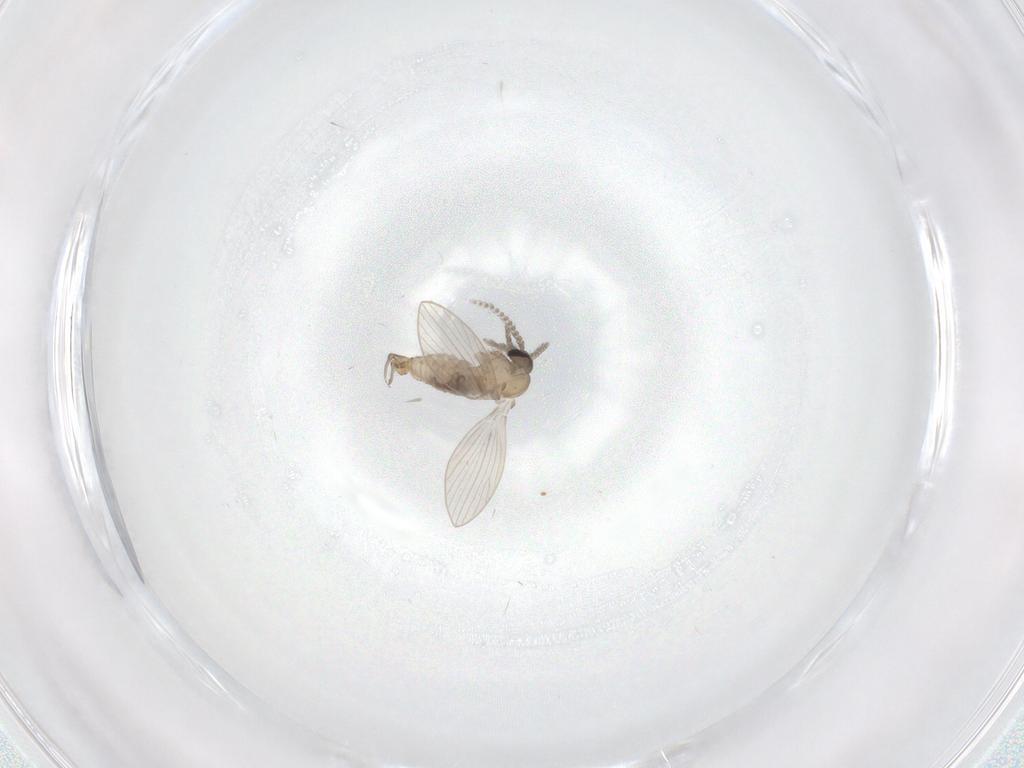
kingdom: Animalia
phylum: Arthropoda
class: Insecta
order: Diptera
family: Psychodidae
